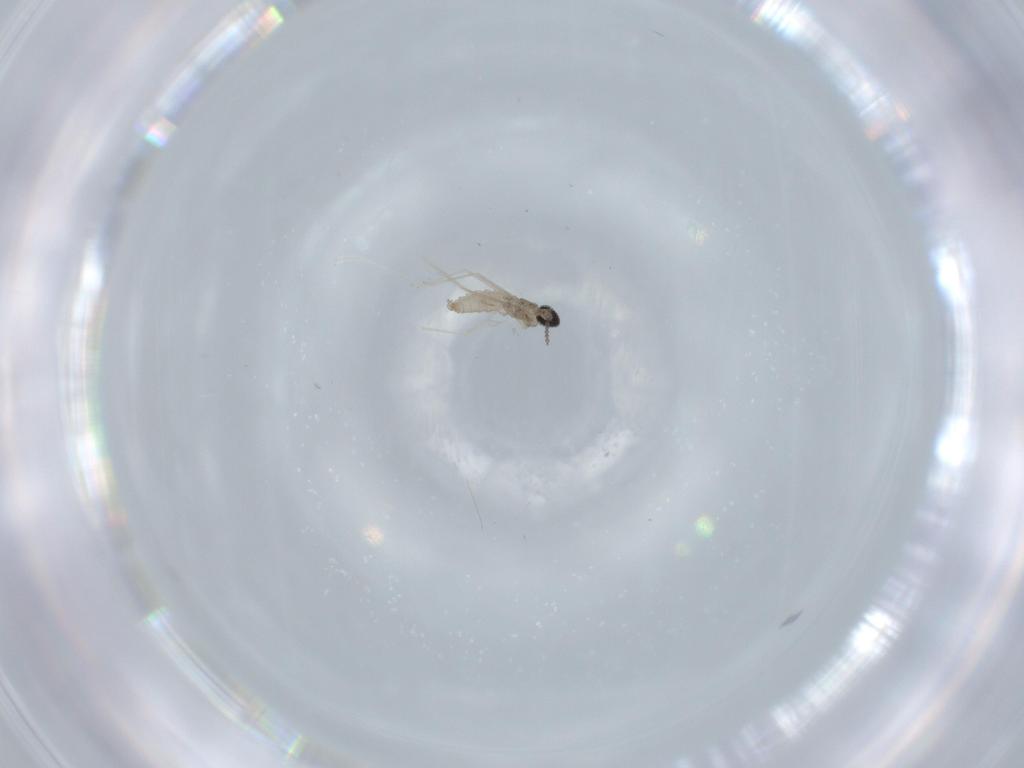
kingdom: Animalia
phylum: Arthropoda
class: Insecta
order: Diptera
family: Cecidomyiidae
